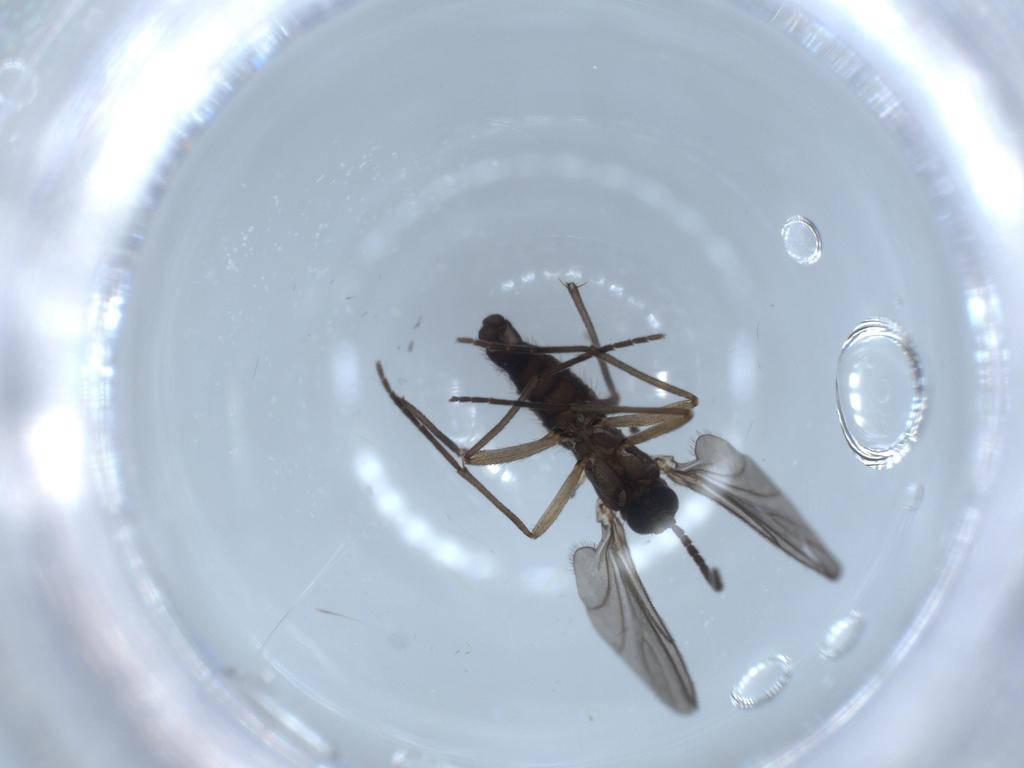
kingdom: Animalia
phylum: Arthropoda
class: Insecta
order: Diptera
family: Sciaridae
